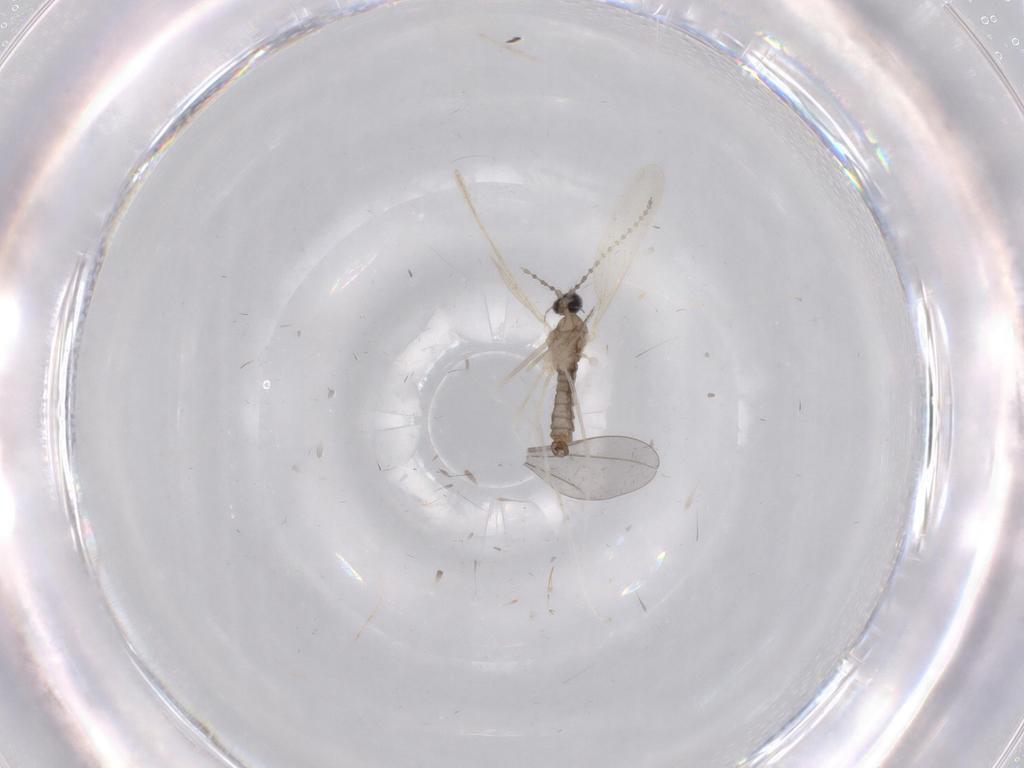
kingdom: Animalia
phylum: Arthropoda
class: Insecta
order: Diptera
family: Cecidomyiidae
